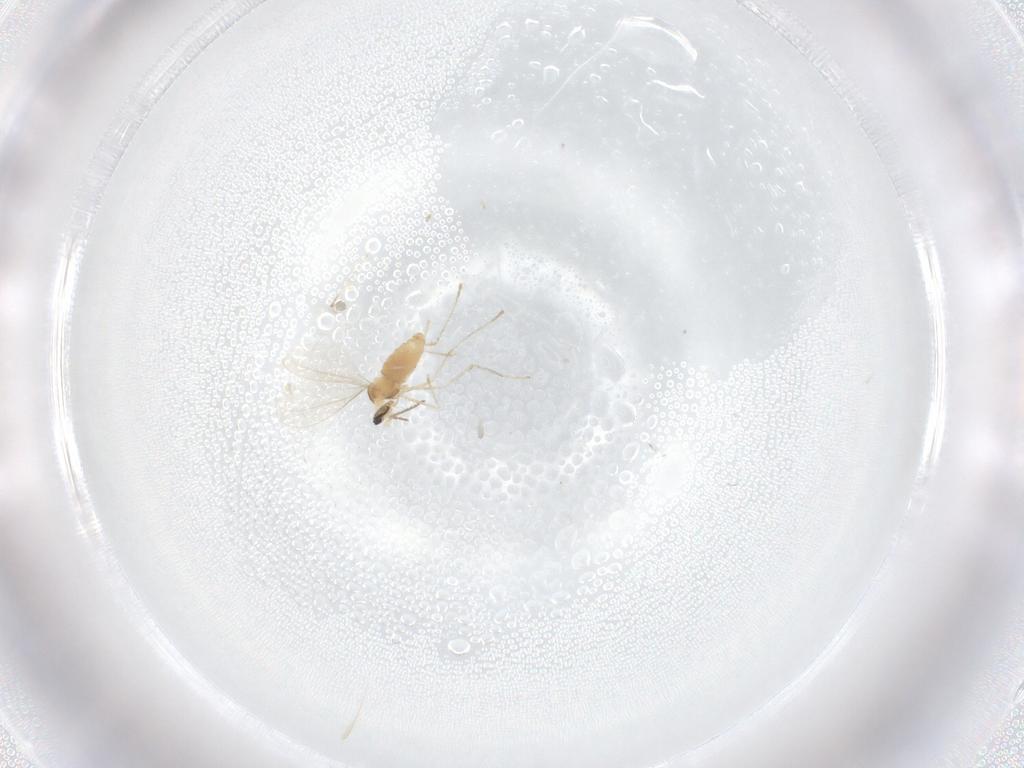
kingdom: Animalia
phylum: Arthropoda
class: Insecta
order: Diptera
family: Cecidomyiidae
